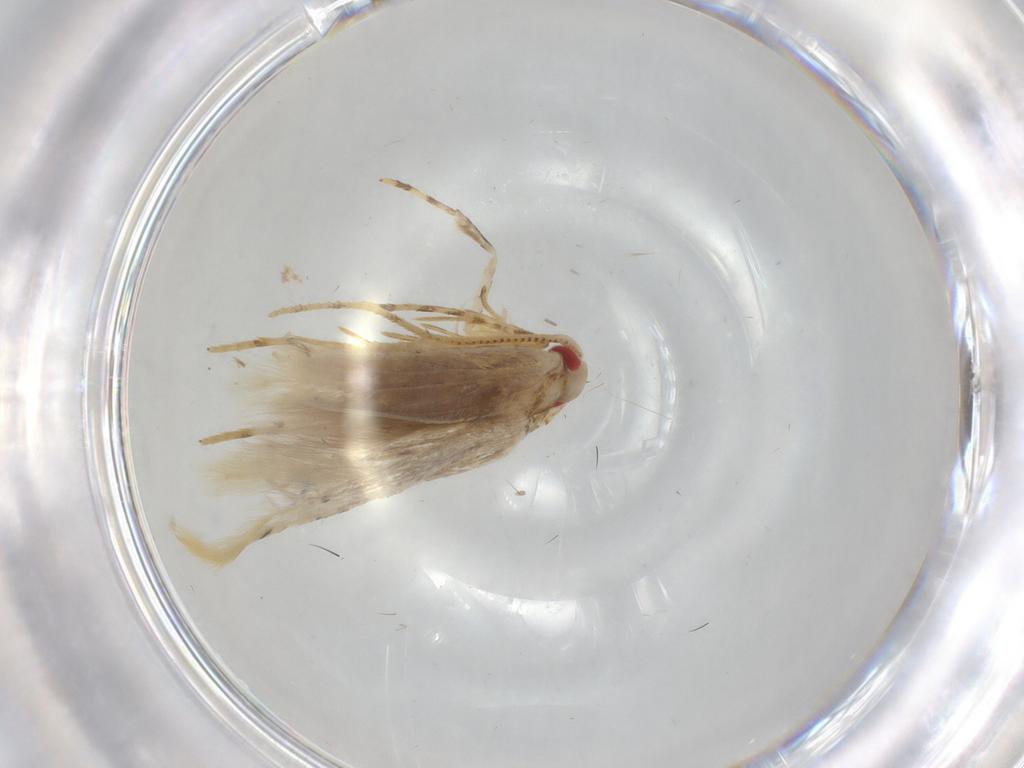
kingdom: Animalia
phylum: Arthropoda
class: Insecta
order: Lepidoptera
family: Cosmopterigidae
